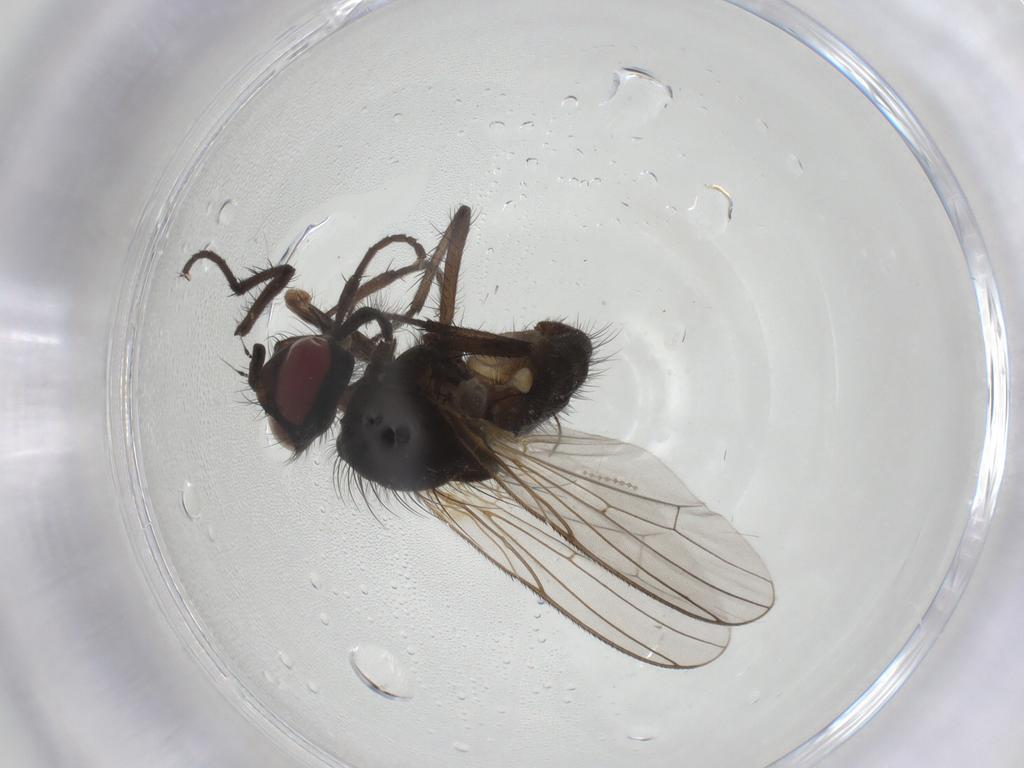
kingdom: Animalia
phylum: Arthropoda
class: Insecta
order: Diptera
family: Anthomyiidae
